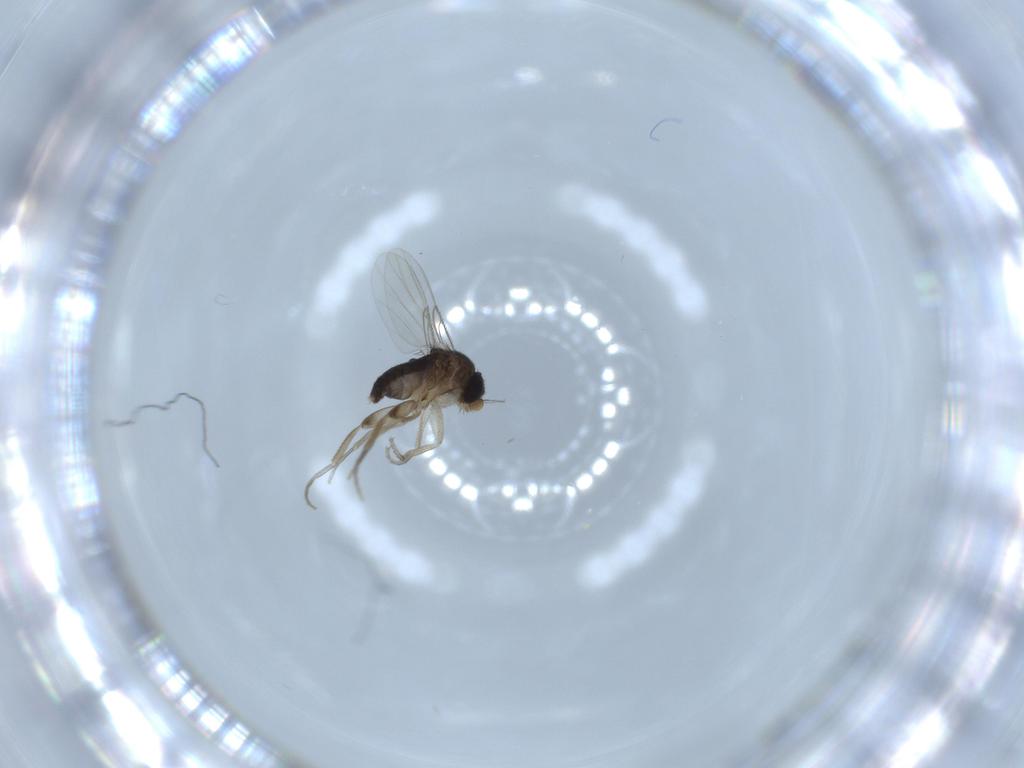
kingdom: Animalia
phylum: Arthropoda
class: Insecta
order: Diptera
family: Phoridae
